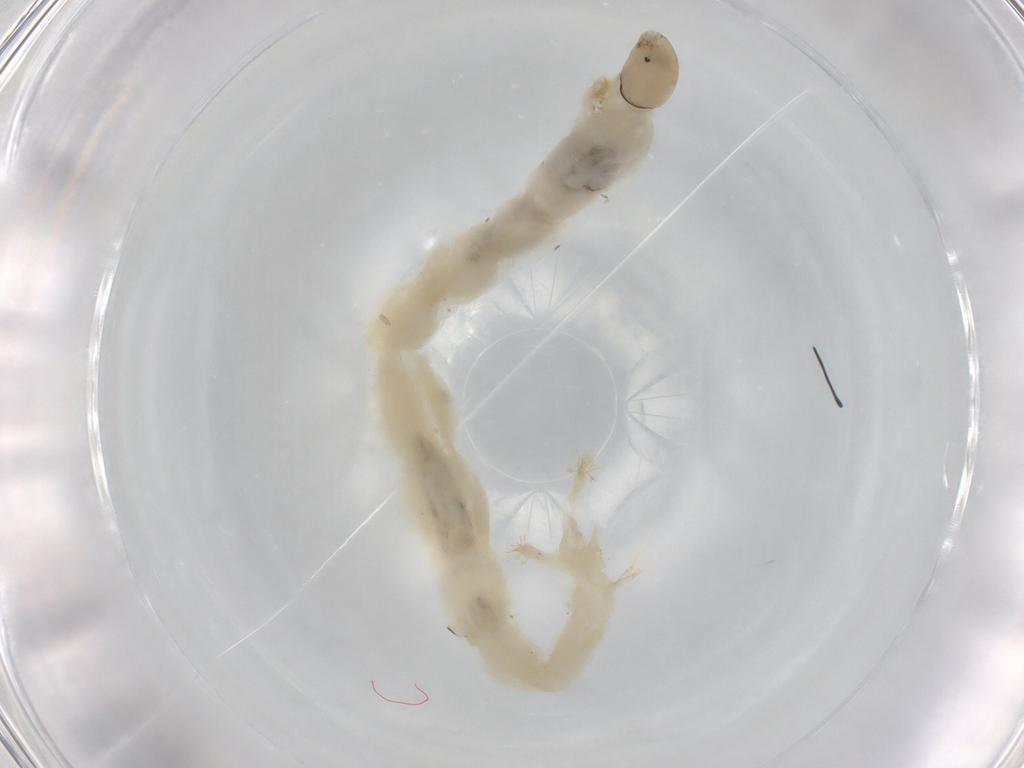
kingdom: Animalia
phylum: Arthropoda
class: Insecta
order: Diptera
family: Chironomidae
